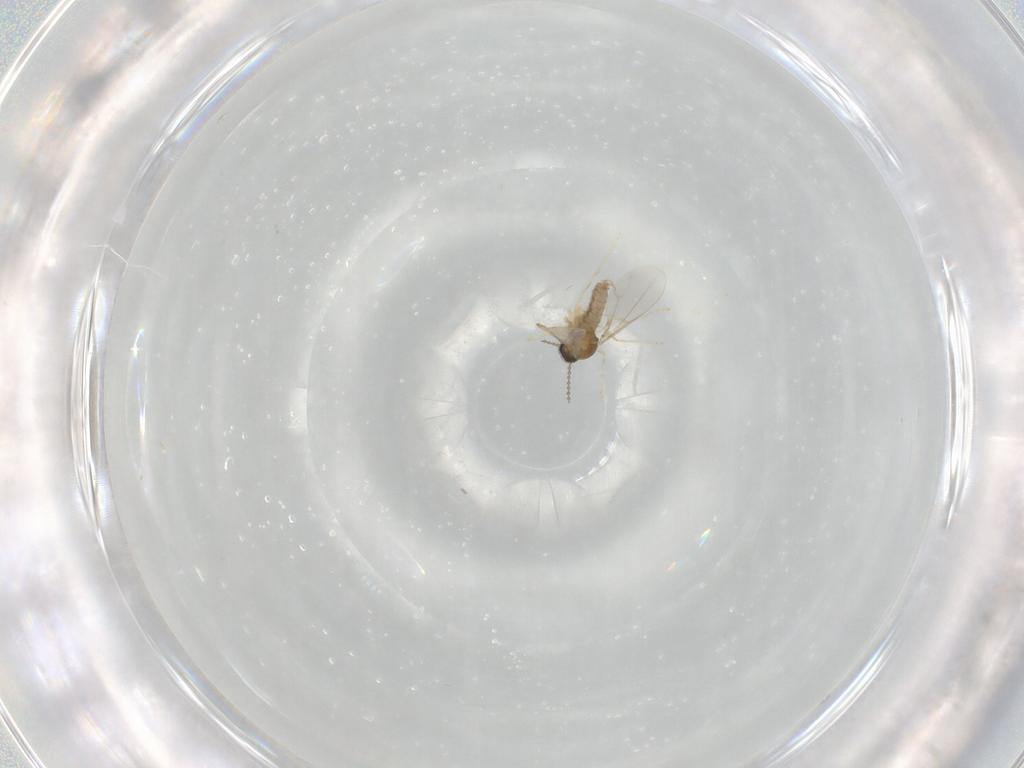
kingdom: Animalia
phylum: Arthropoda
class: Insecta
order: Diptera
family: Cecidomyiidae
